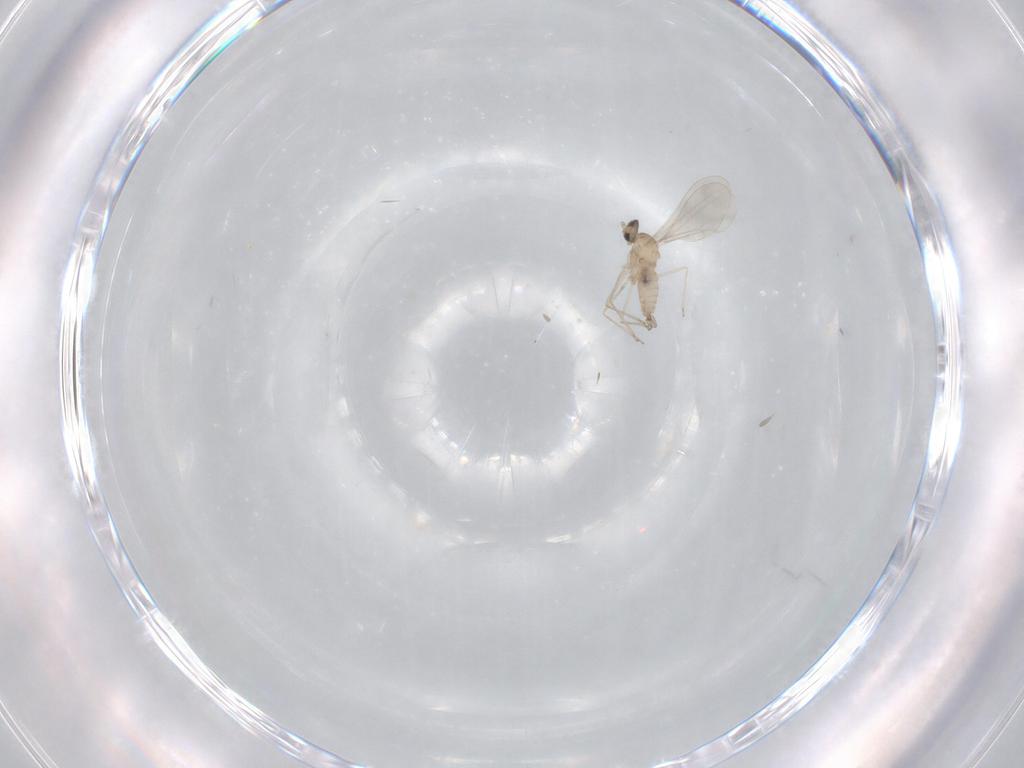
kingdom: Animalia
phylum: Arthropoda
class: Insecta
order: Diptera
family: Cecidomyiidae
